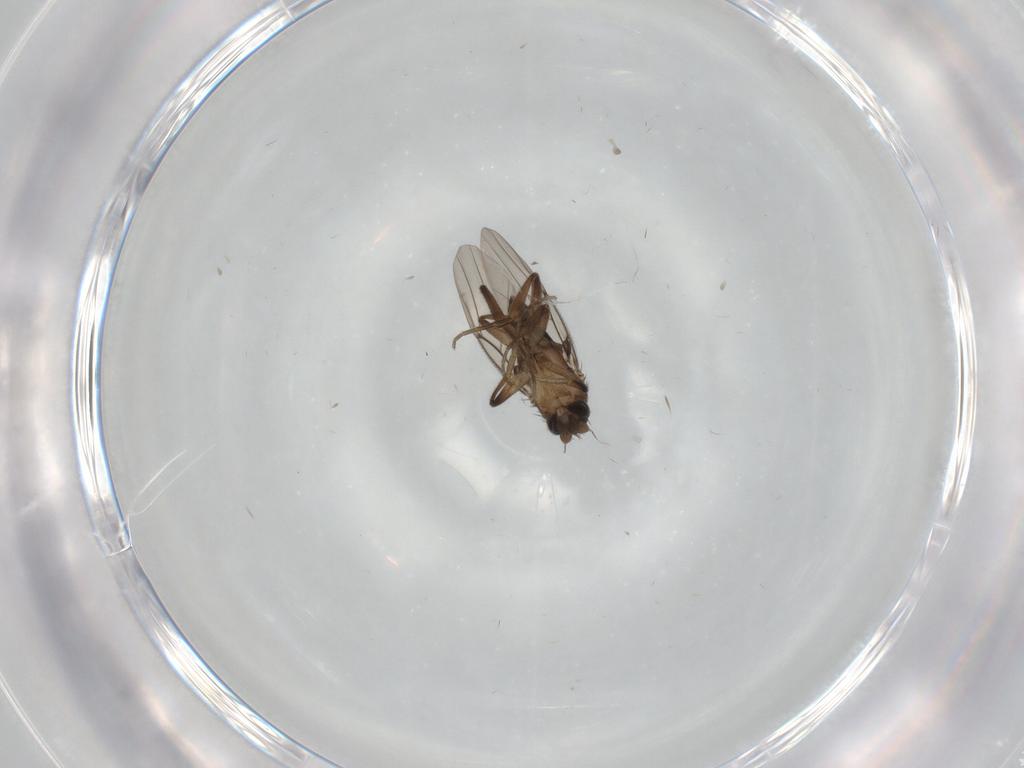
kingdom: Animalia
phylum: Arthropoda
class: Insecta
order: Diptera
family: Phoridae
